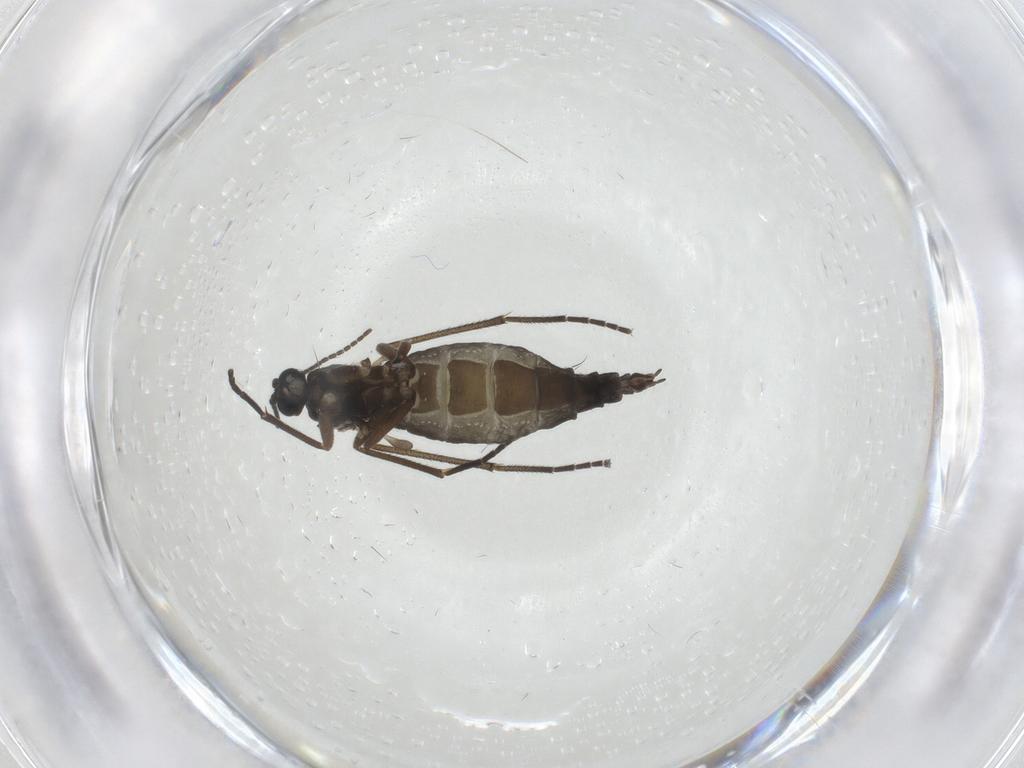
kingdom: Animalia
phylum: Arthropoda
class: Insecta
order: Diptera
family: Sciaridae
